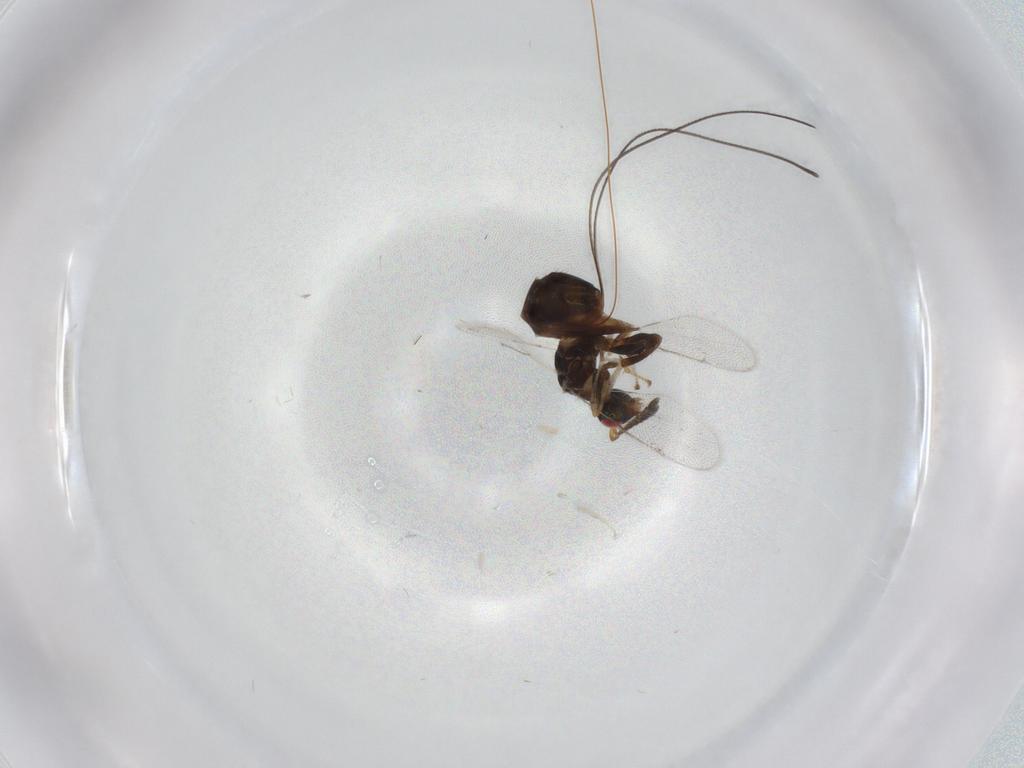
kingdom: Animalia
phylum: Arthropoda
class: Insecta
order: Hymenoptera
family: Torymidae
